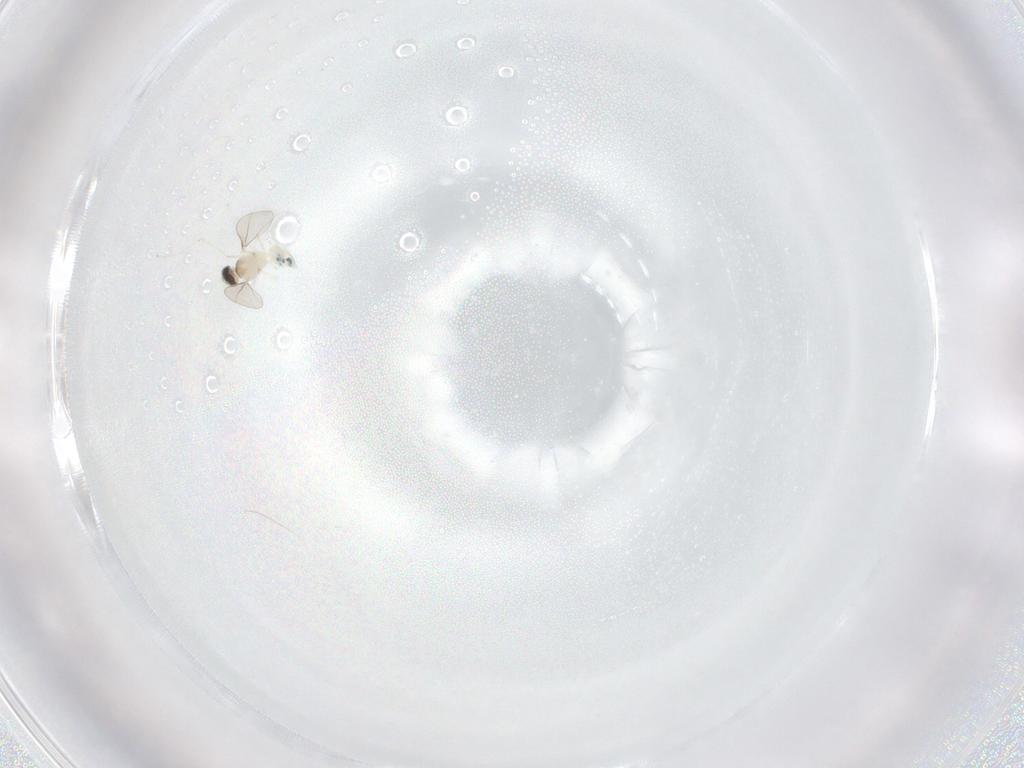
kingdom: Animalia
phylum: Arthropoda
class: Insecta
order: Diptera
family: Cecidomyiidae
